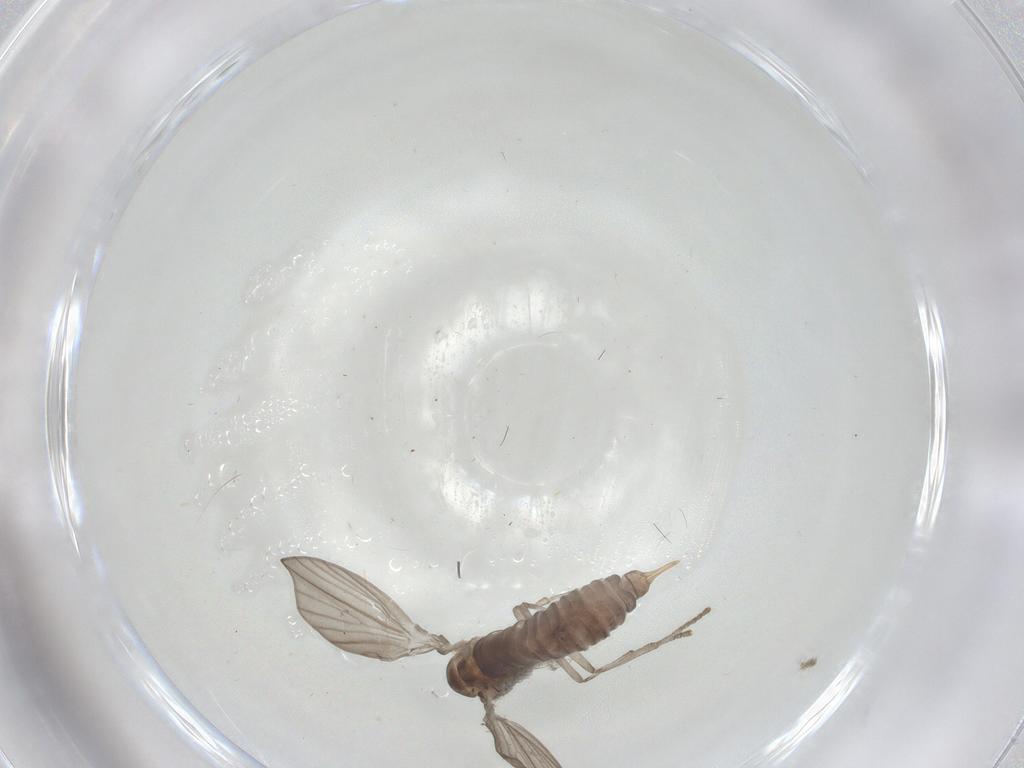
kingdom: Animalia
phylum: Arthropoda
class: Insecta
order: Diptera
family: Psychodidae
